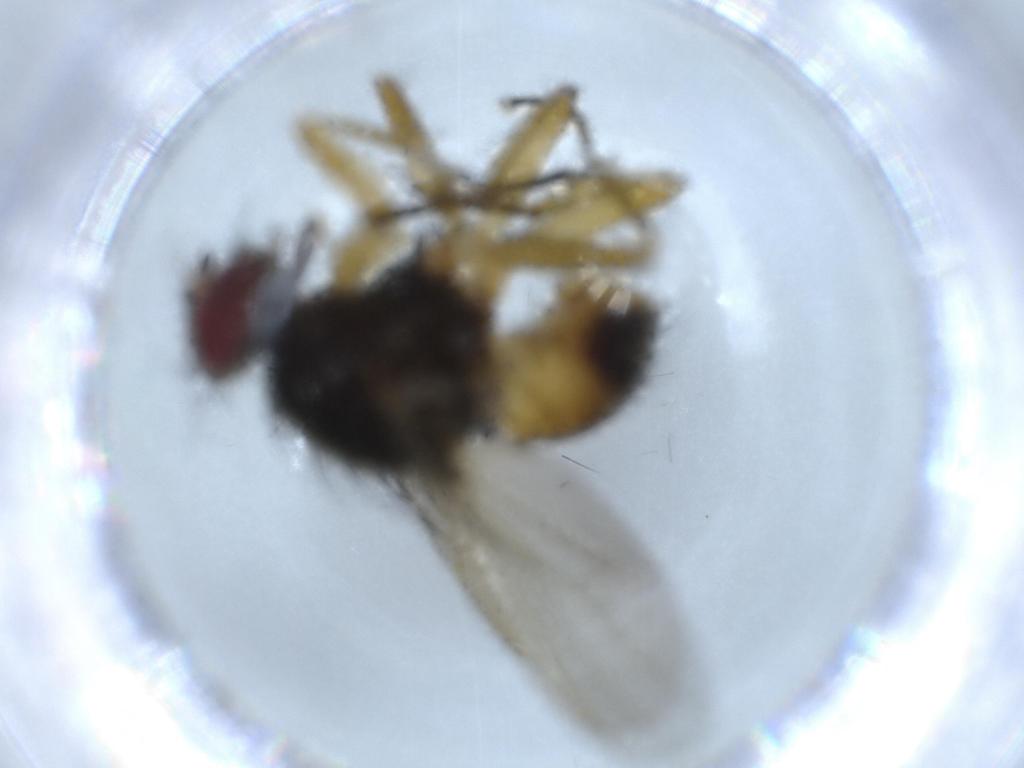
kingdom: Animalia
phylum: Arthropoda
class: Insecta
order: Diptera
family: Muscidae
